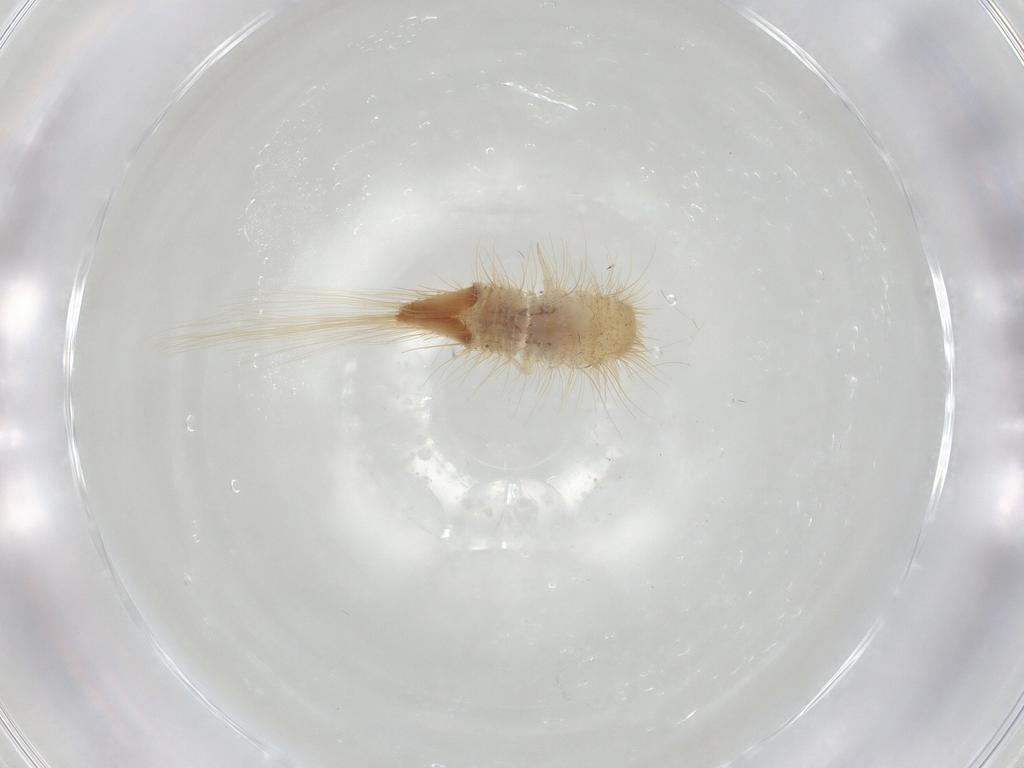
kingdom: Animalia
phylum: Arthropoda
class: Insecta
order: Coleoptera
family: Dermestidae
